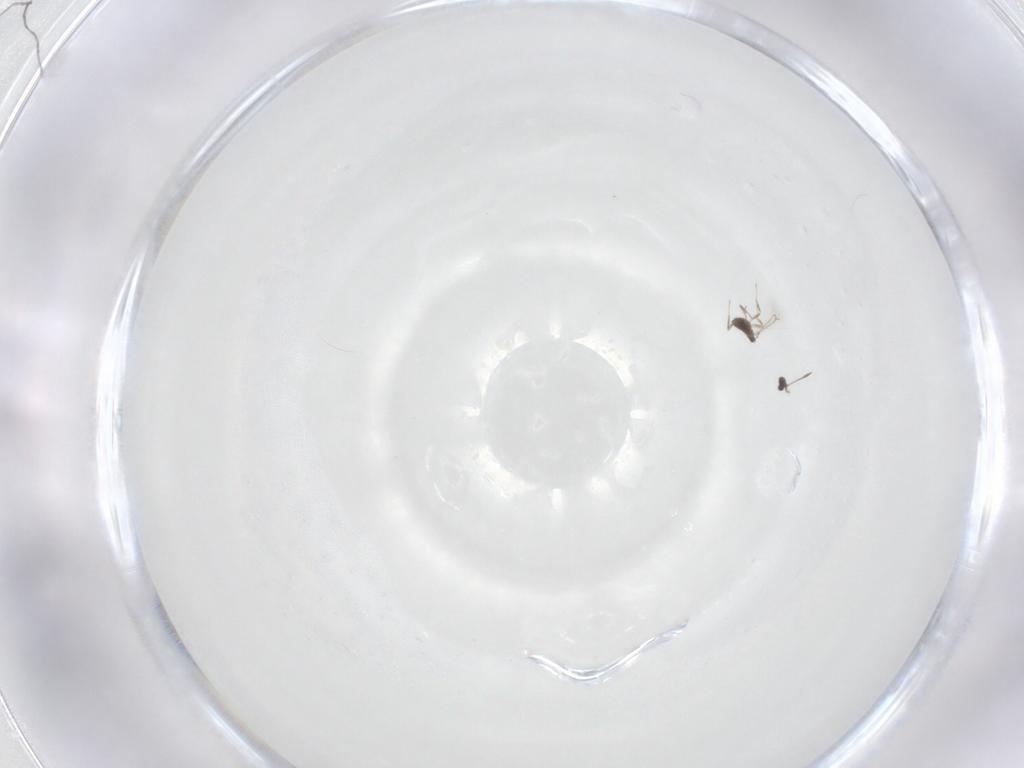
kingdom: Animalia
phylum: Arthropoda
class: Insecta
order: Hymenoptera
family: Mymaridae
